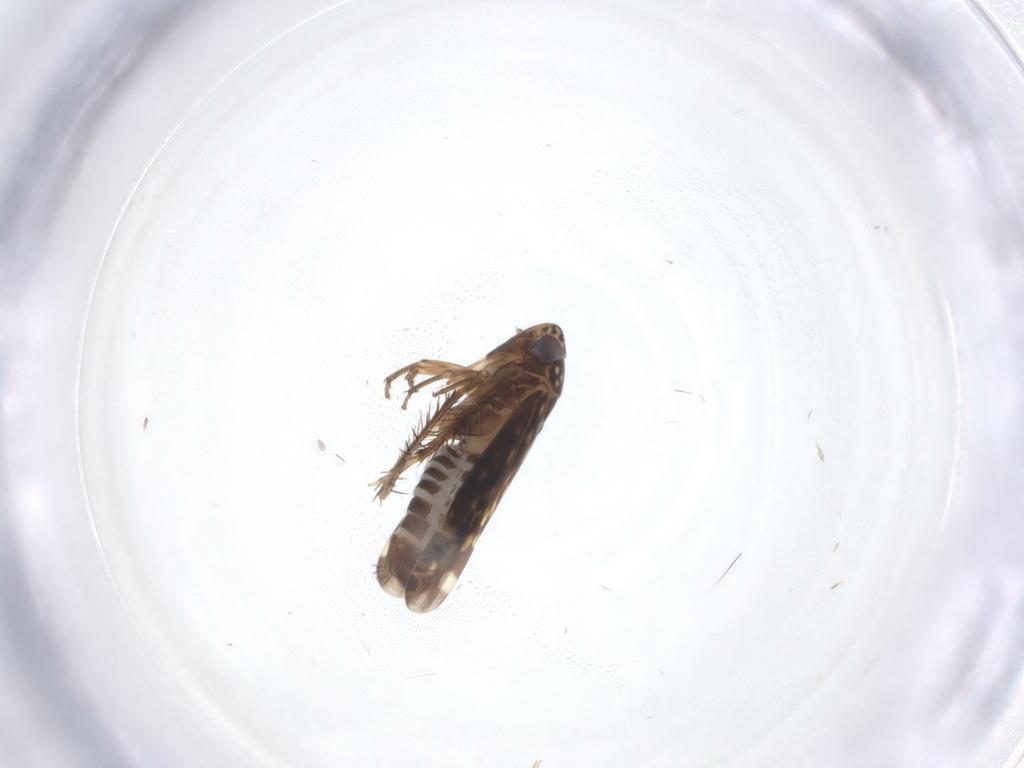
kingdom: Animalia
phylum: Arthropoda
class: Insecta
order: Hemiptera
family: Cicadellidae
